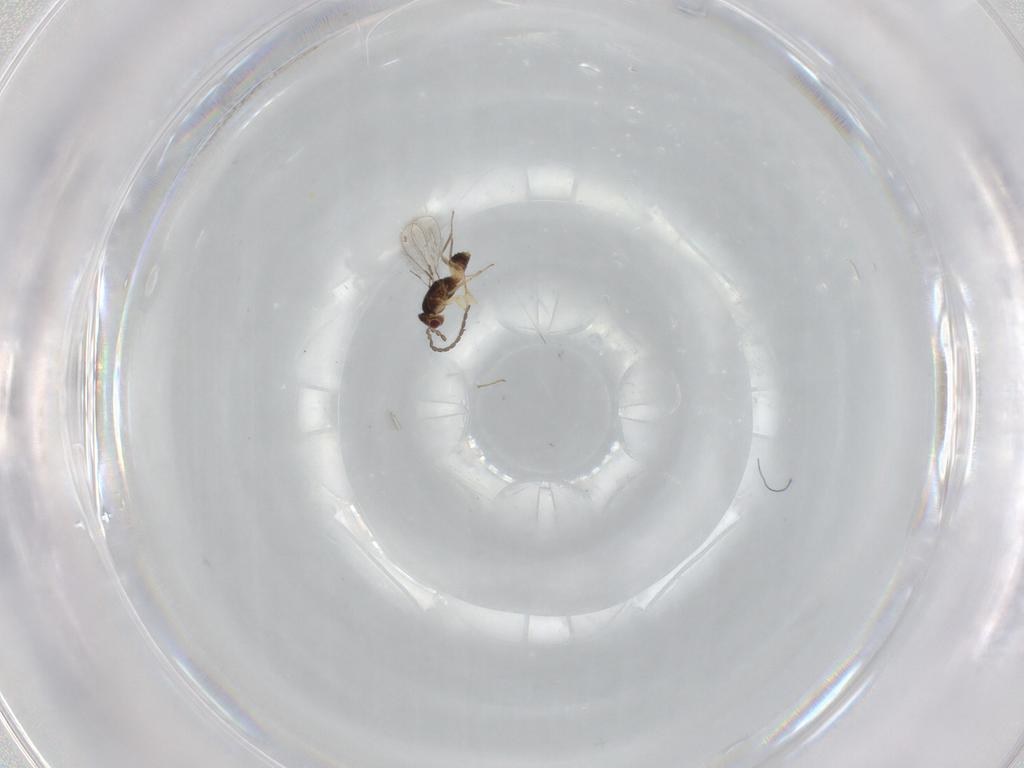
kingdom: Animalia
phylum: Arthropoda
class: Insecta
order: Hymenoptera
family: Mymaridae
